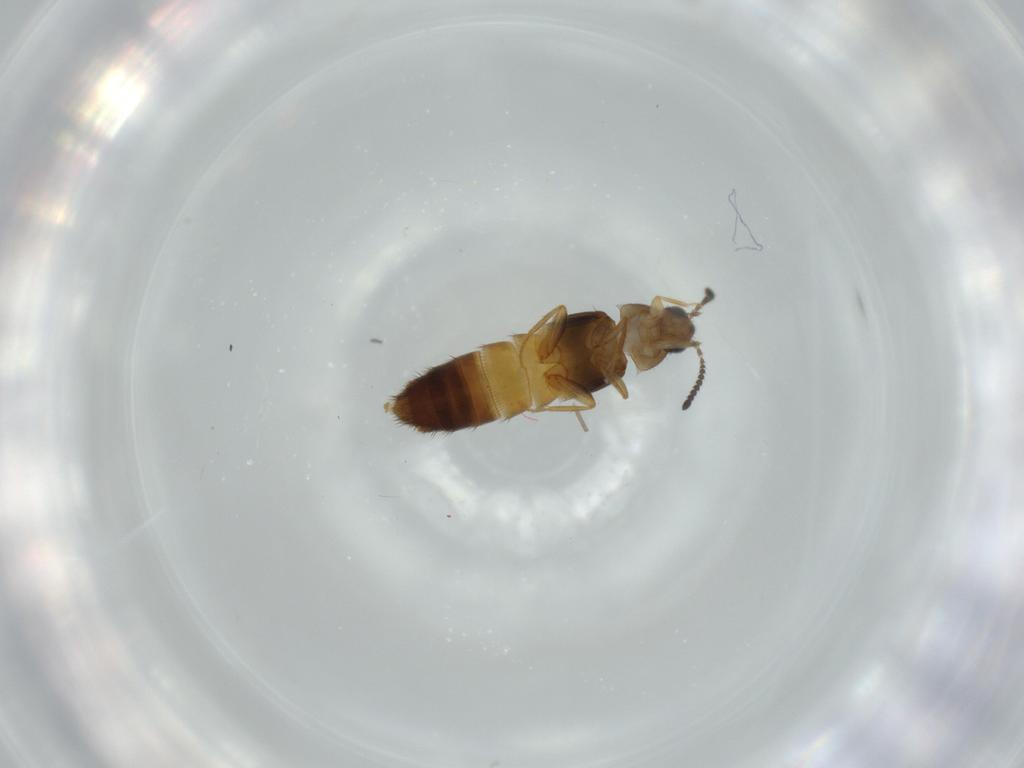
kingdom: Animalia
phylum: Arthropoda
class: Insecta
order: Coleoptera
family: Staphylinidae
